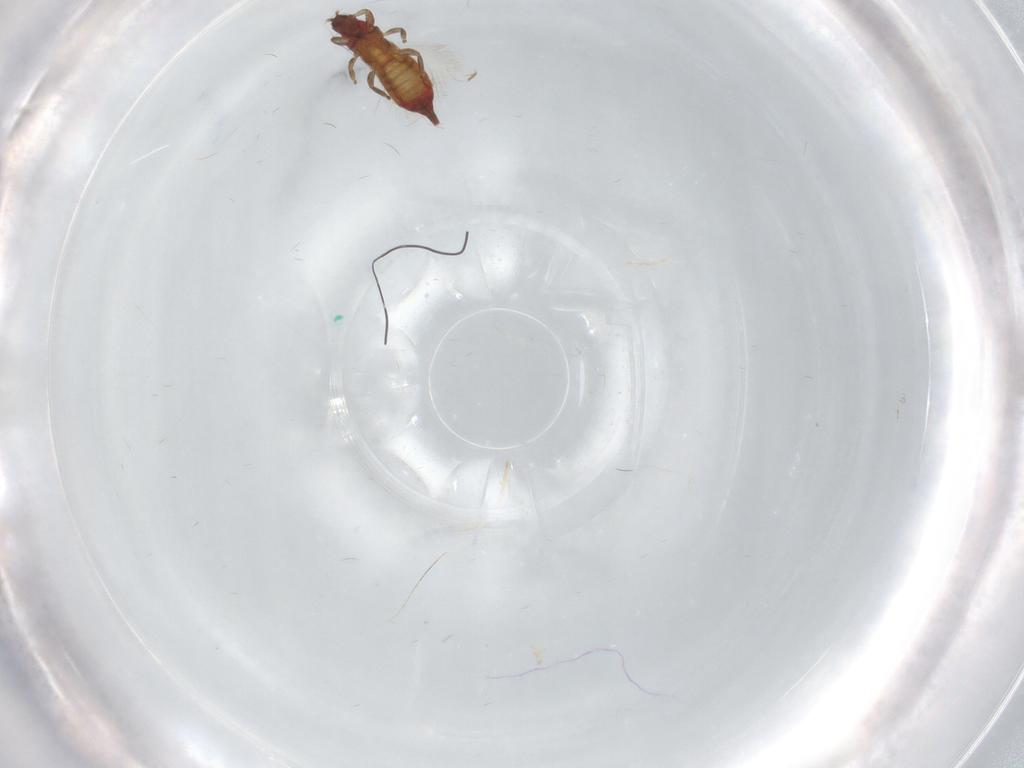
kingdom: Animalia
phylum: Arthropoda
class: Insecta
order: Thysanoptera
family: Phlaeothripidae
